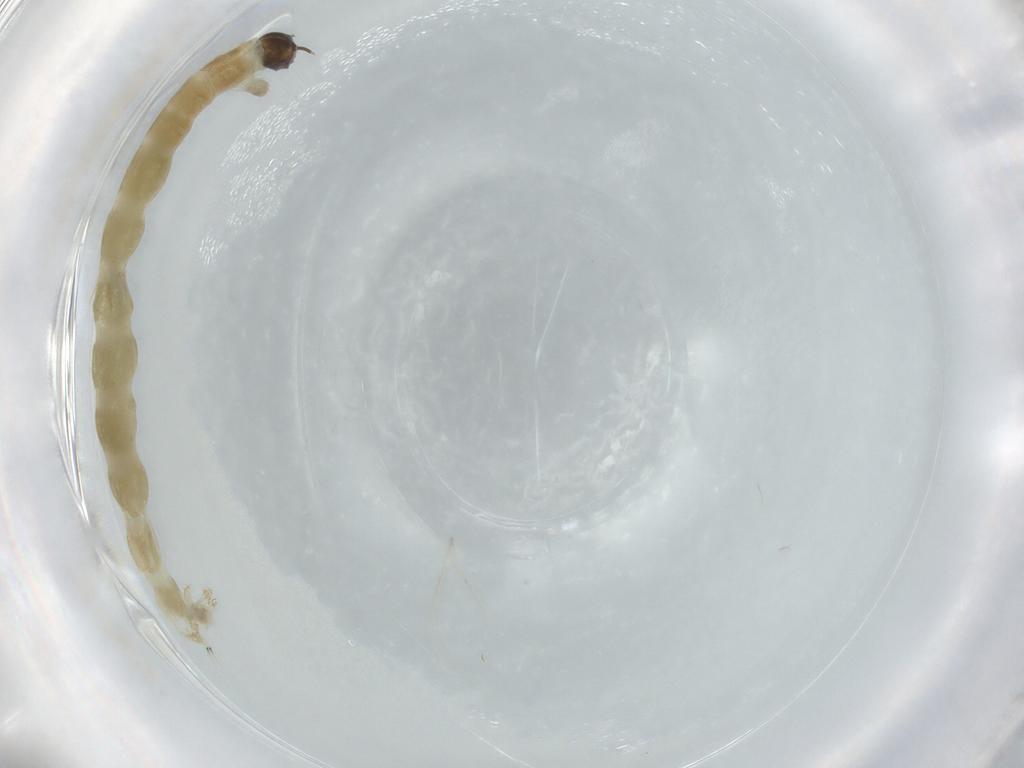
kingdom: Animalia
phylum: Arthropoda
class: Insecta
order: Diptera
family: Chironomidae
